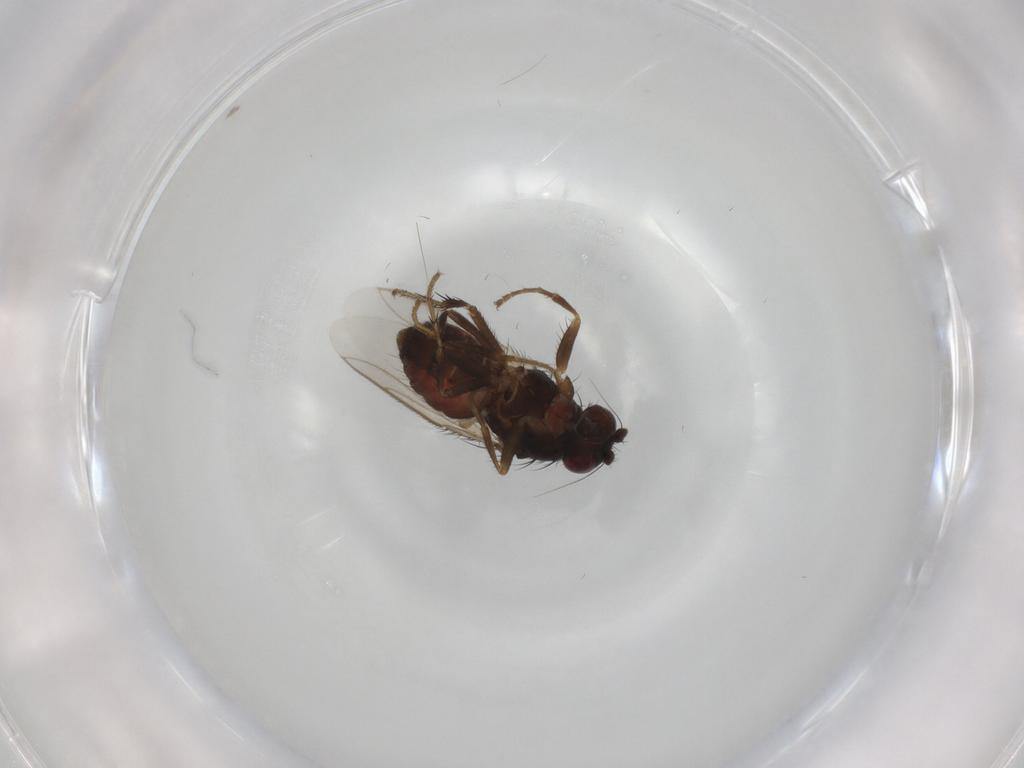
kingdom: Animalia
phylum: Arthropoda
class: Insecta
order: Diptera
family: Sphaeroceridae
